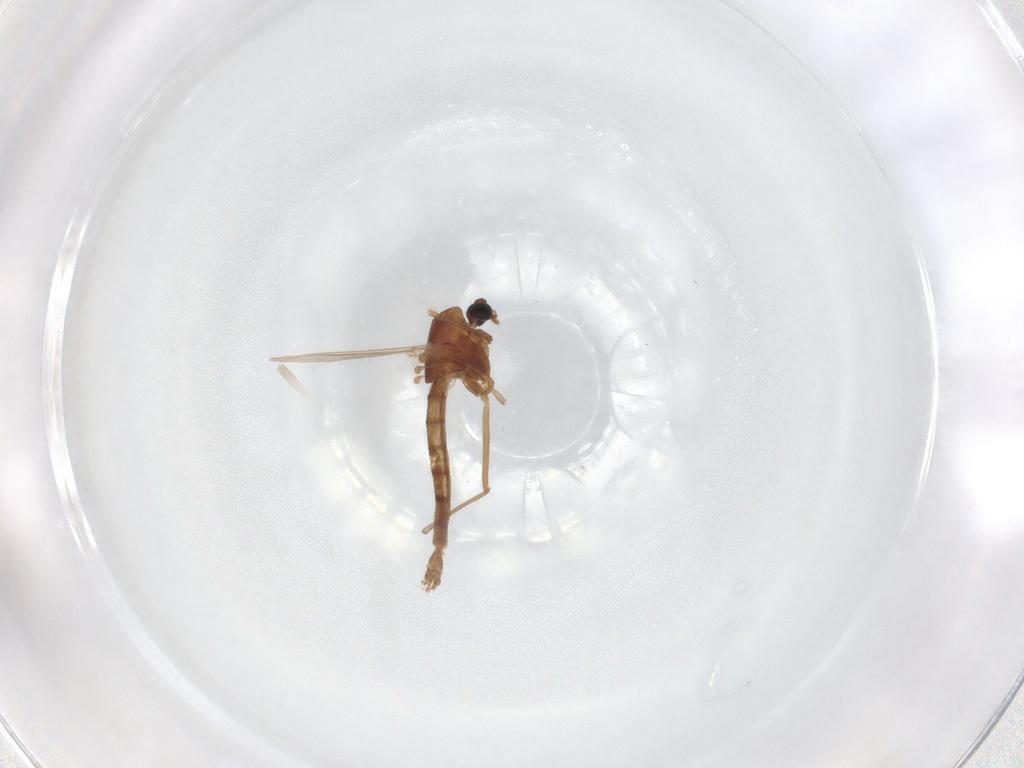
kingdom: Animalia
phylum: Arthropoda
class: Insecta
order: Diptera
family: Chironomidae
